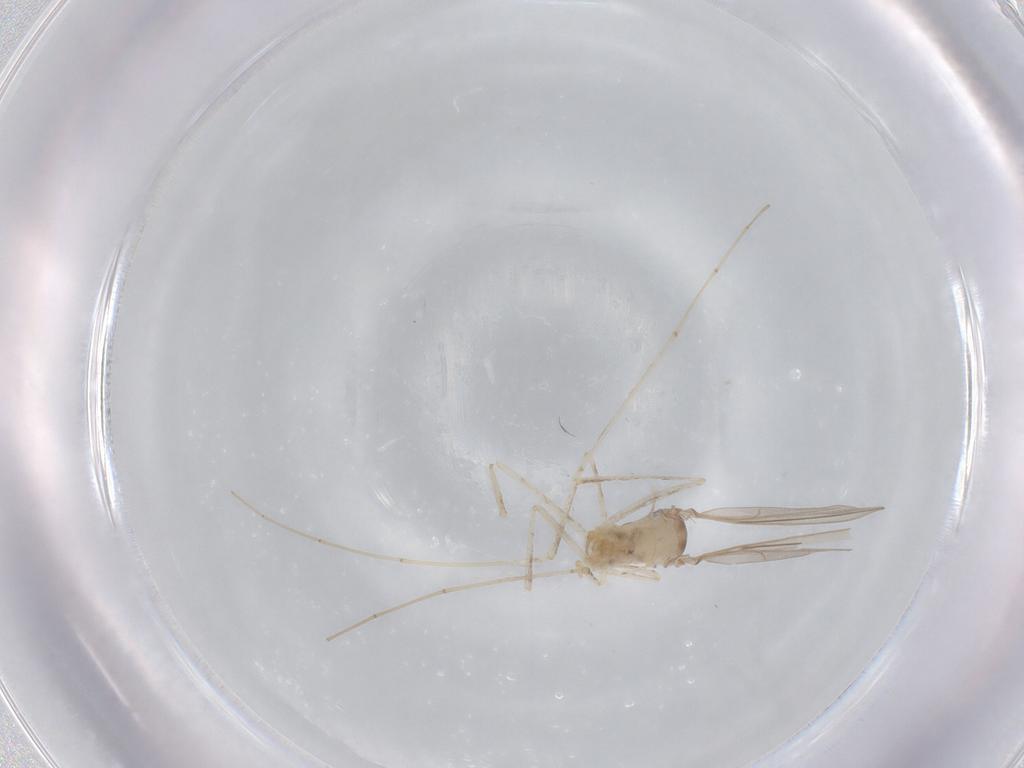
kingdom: Animalia
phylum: Arthropoda
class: Insecta
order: Diptera
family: Cecidomyiidae
